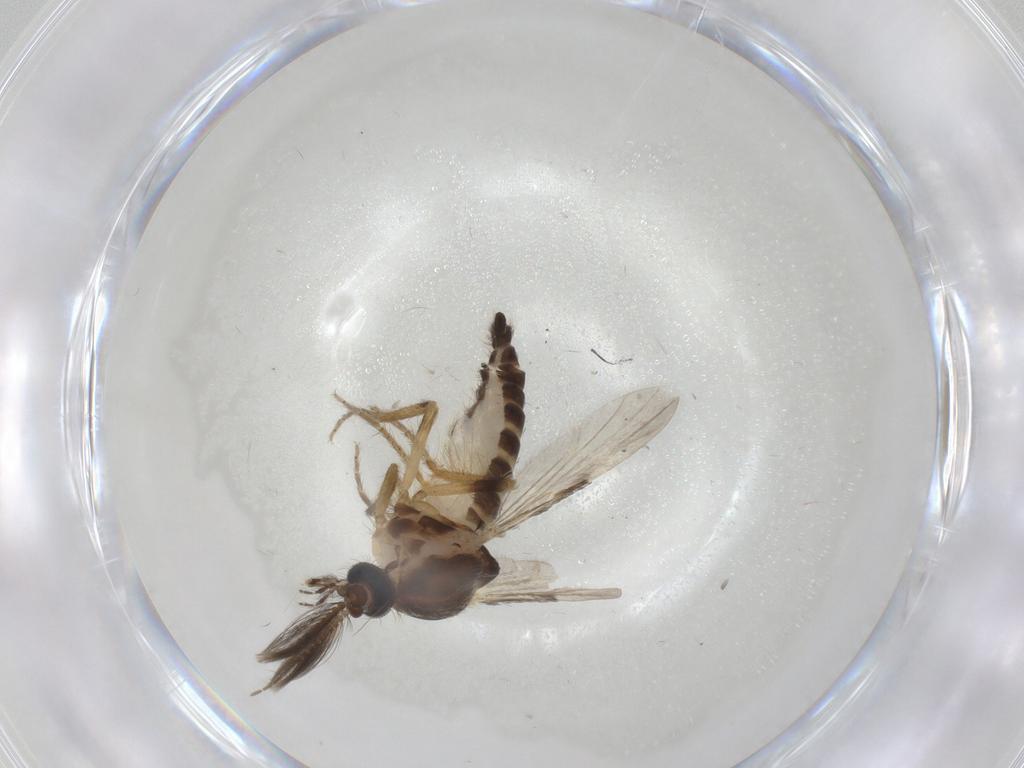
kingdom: Animalia
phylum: Arthropoda
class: Insecta
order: Diptera
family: Ceratopogonidae
